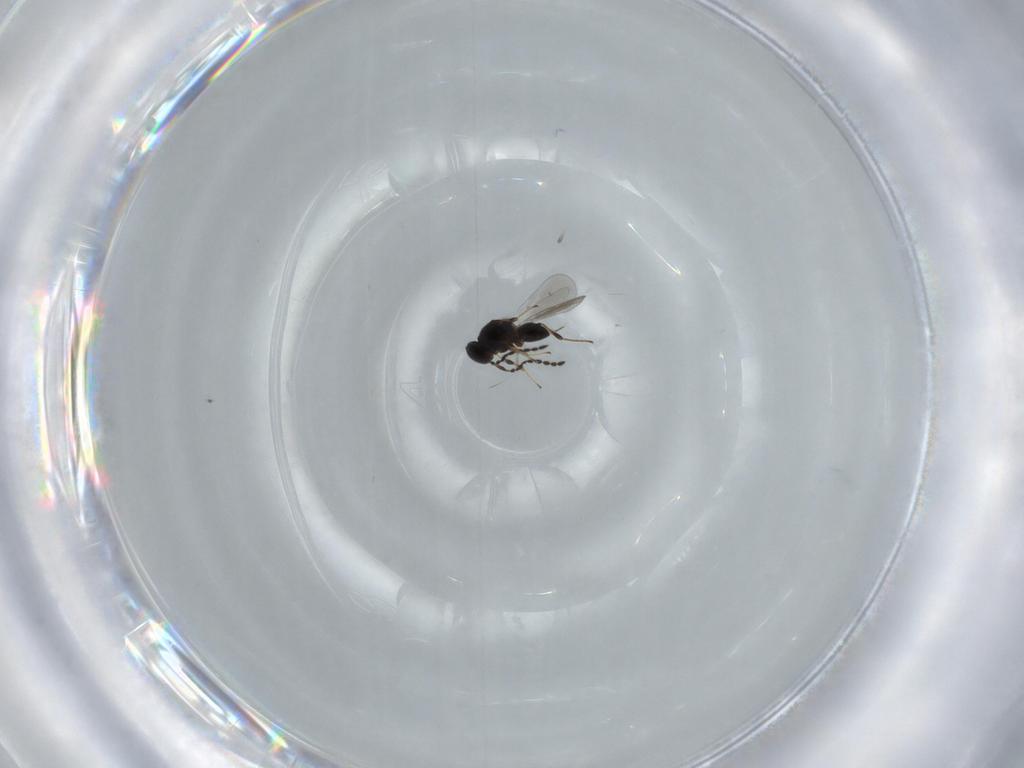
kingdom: Animalia
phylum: Arthropoda
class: Insecta
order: Hymenoptera
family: Platygastridae
